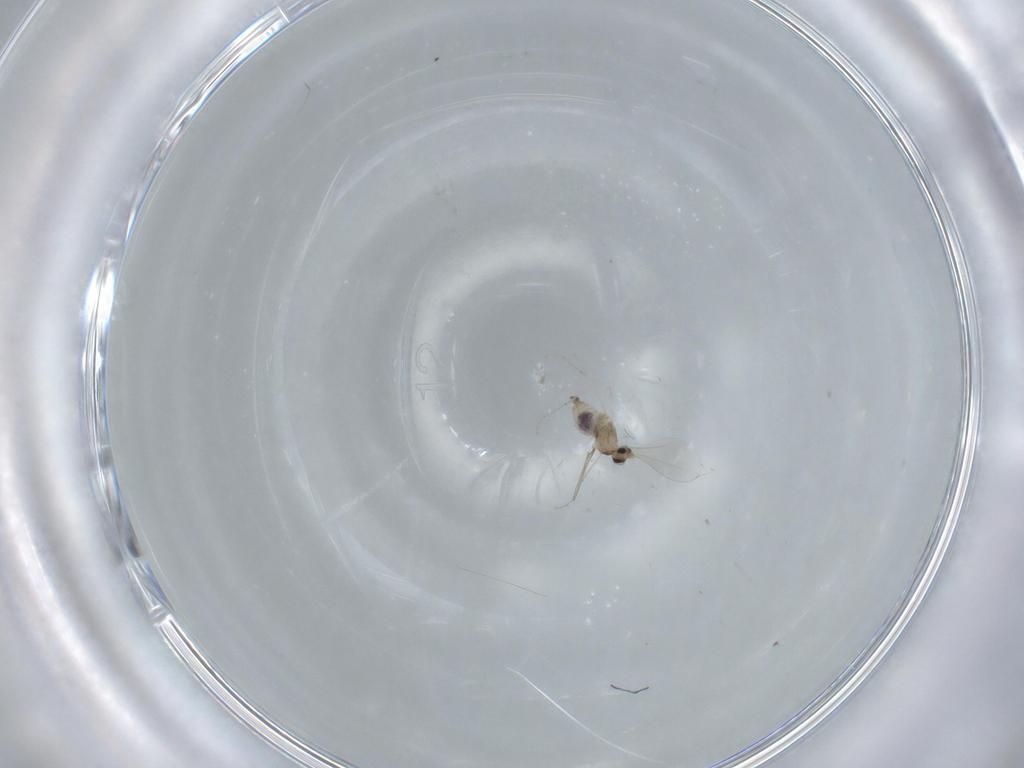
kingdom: Animalia
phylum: Arthropoda
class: Insecta
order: Diptera
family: Cecidomyiidae
